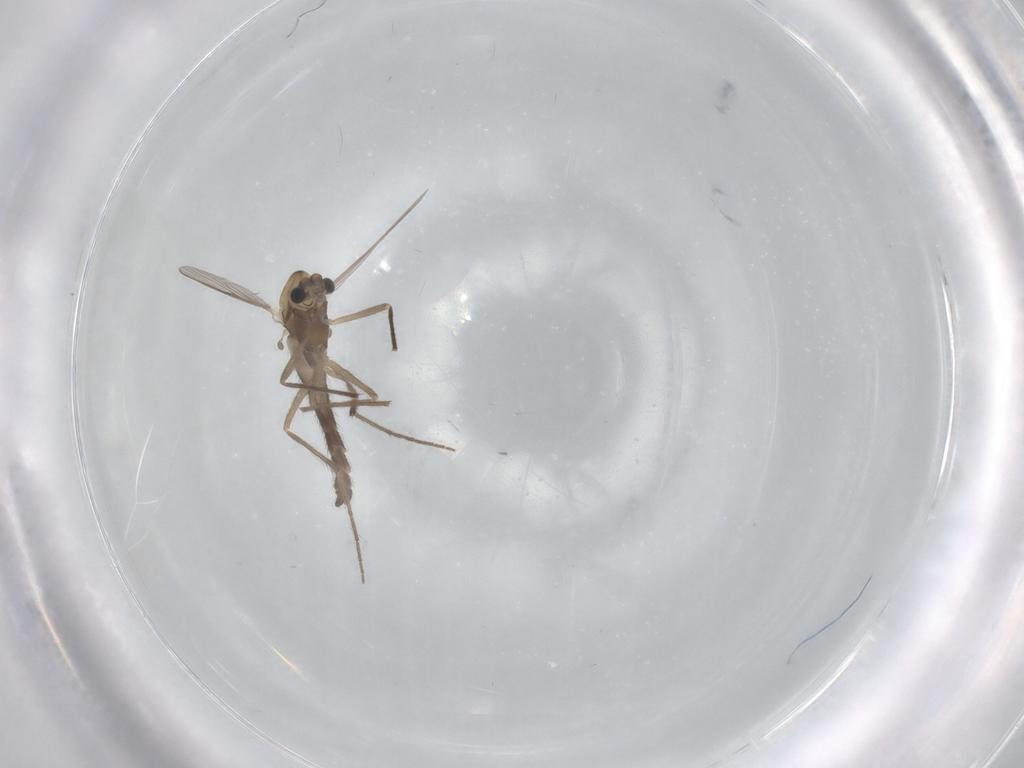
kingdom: Animalia
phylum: Arthropoda
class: Insecta
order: Diptera
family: Chironomidae
